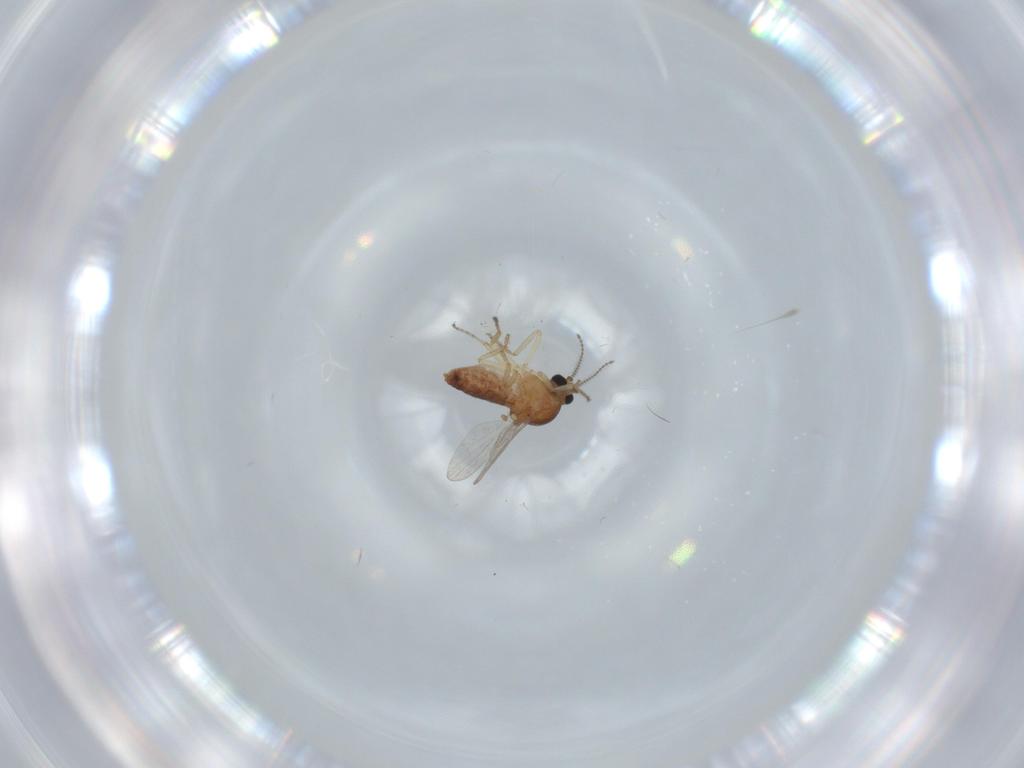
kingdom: Animalia
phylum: Arthropoda
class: Insecta
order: Diptera
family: Ceratopogonidae
